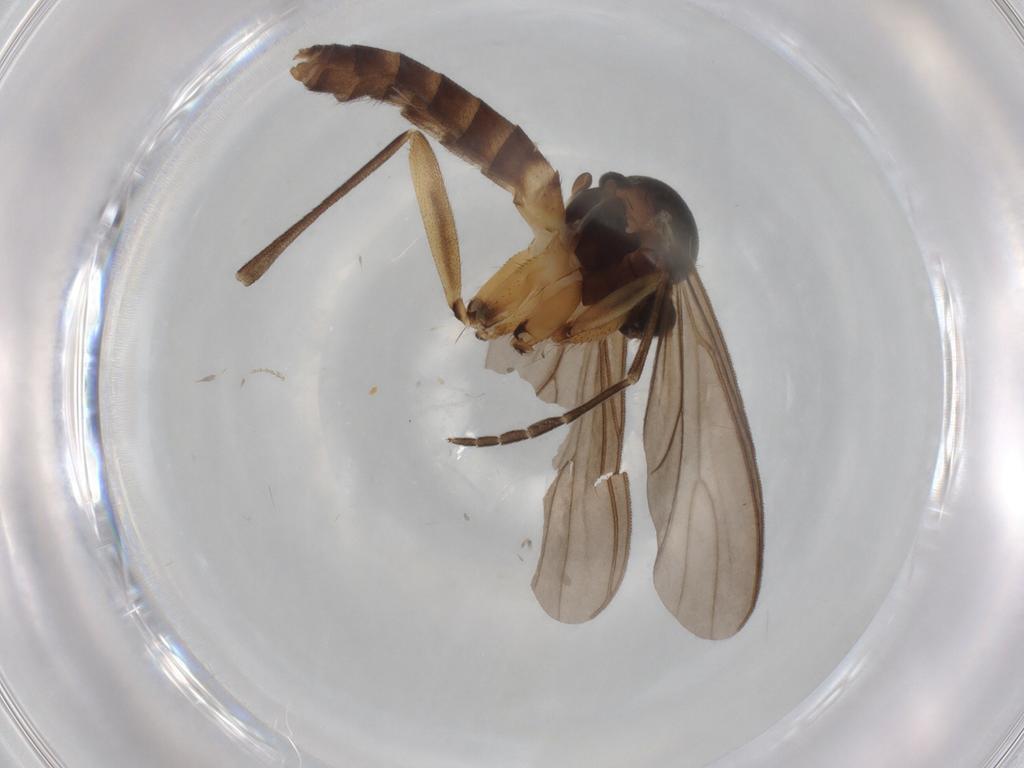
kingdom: Animalia
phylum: Arthropoda
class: Insecta
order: Diptera
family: Mycetophilidae
